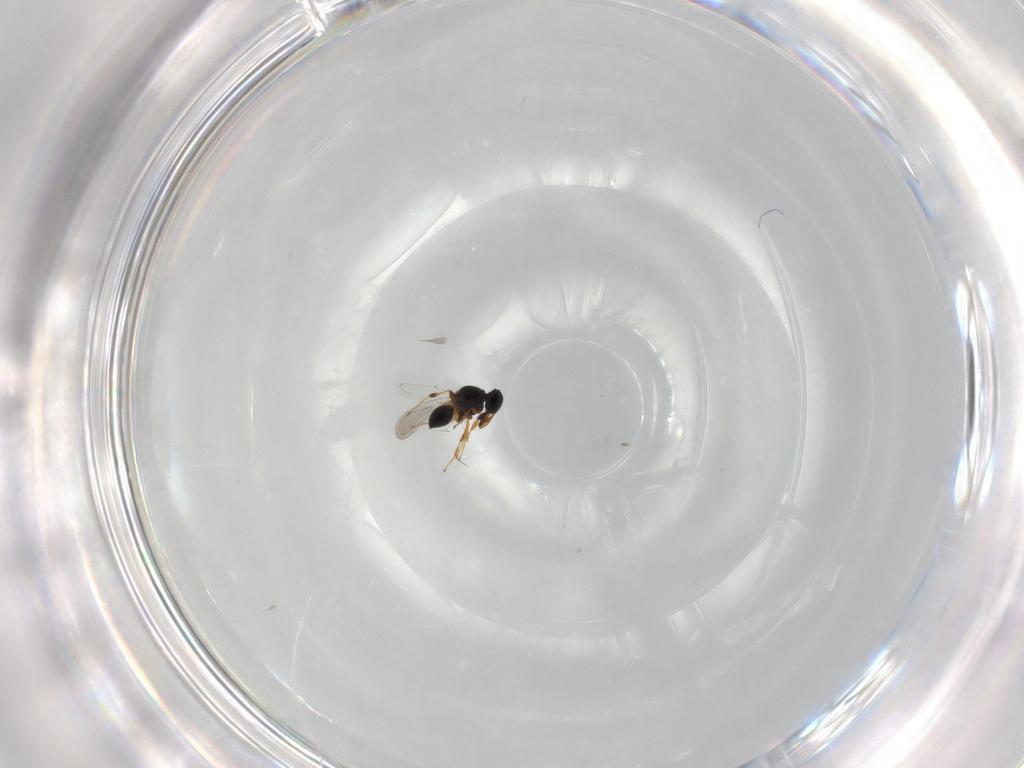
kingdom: Animalia
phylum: Arthropoda
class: Insecta
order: Hymenoptera
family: Platygastridae
